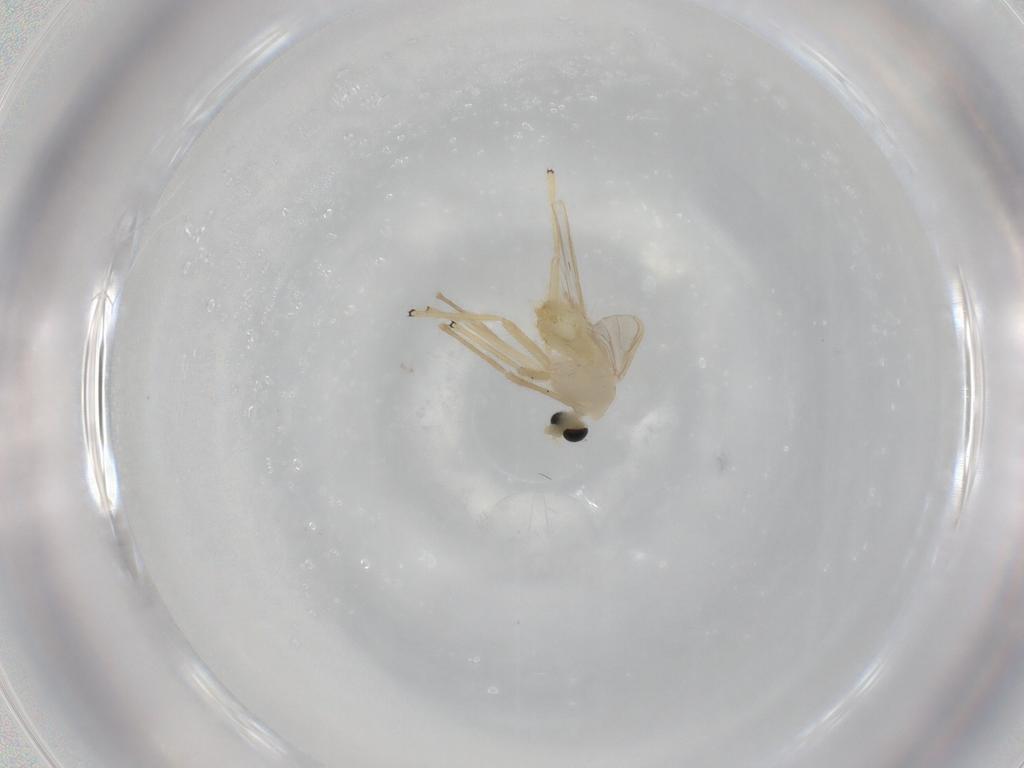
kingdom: Animalia
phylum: Arthropoda
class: Insecta
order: Diptera
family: Chironomidae
